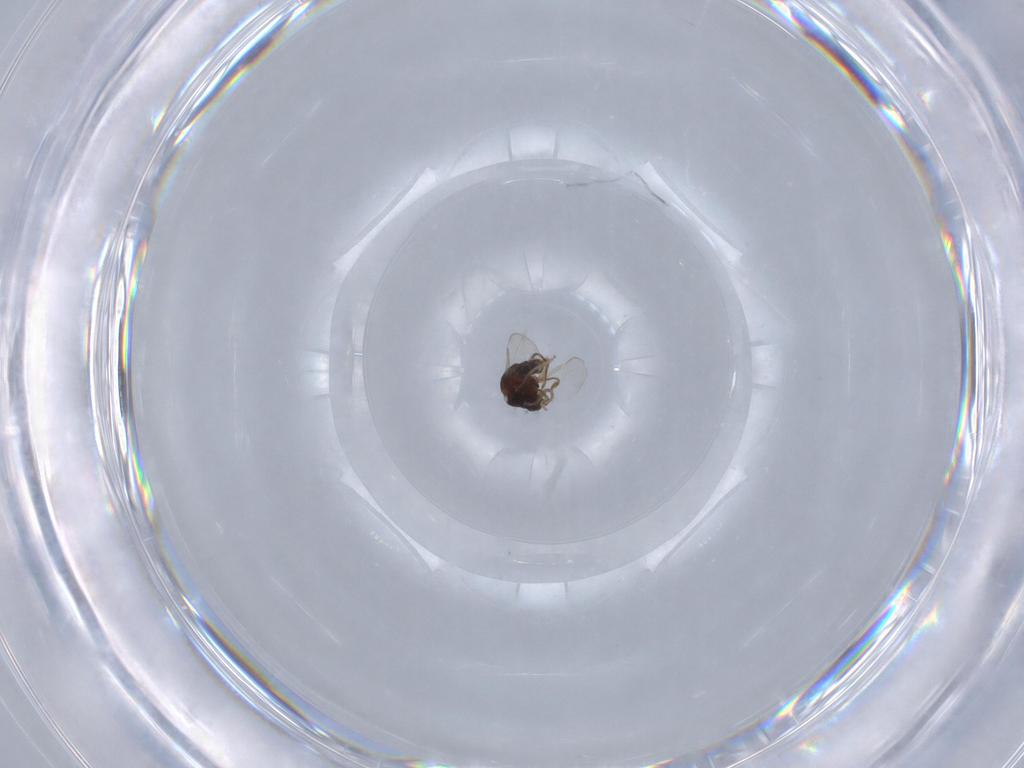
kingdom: Animalia
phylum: Arthropoda
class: Insecta
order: Diptera
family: Ceratopogonidae
